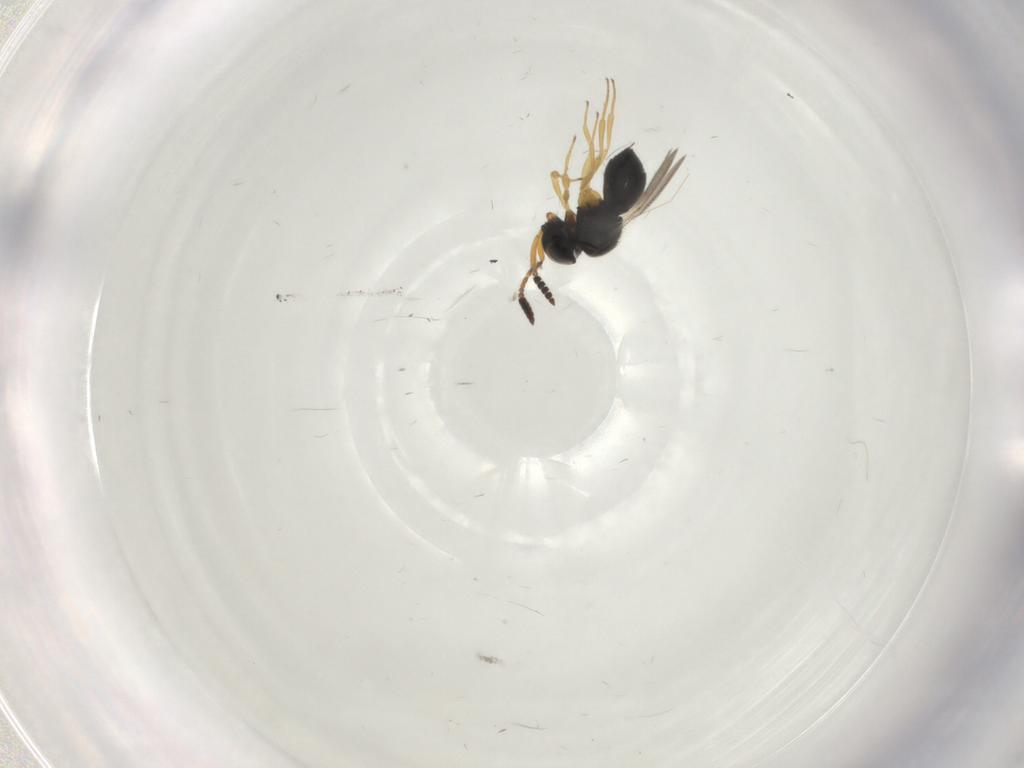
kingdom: Animalia
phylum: Arthropoda
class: Insecta
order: Hymenoptera
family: Scelionidae
